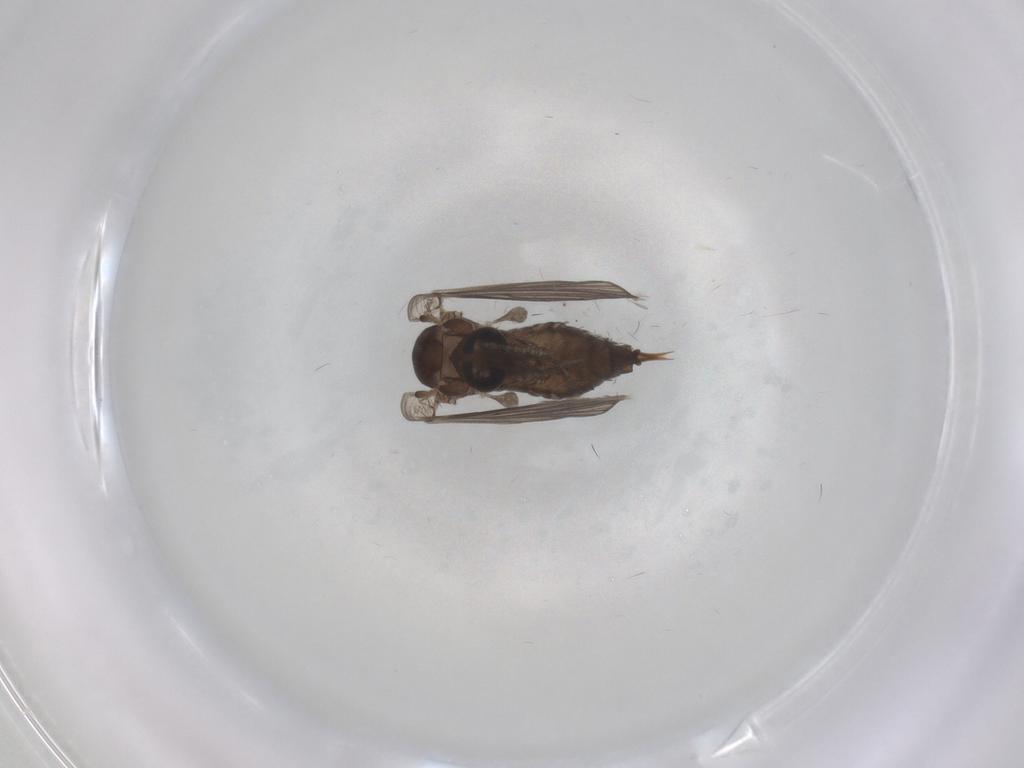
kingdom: Animalia
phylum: Arthropoda
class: Insecta
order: Diptera
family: Psychodidae
